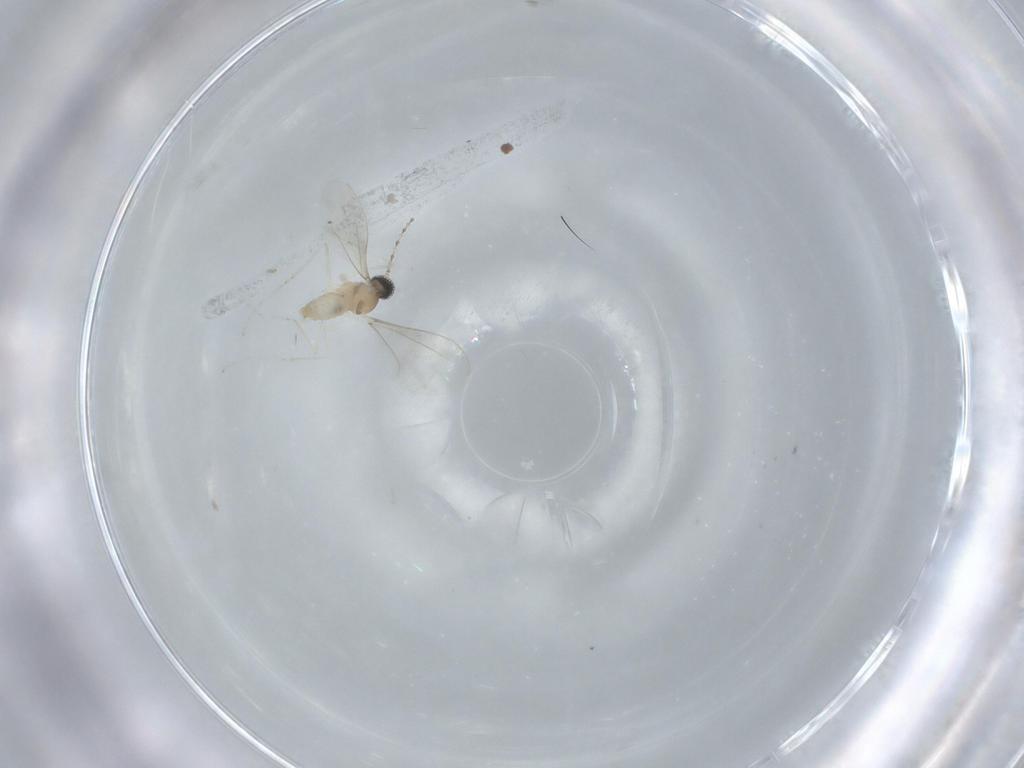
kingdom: Animalia
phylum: Arthropoda
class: Insecta
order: Diptera
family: Cecidomyiidae
